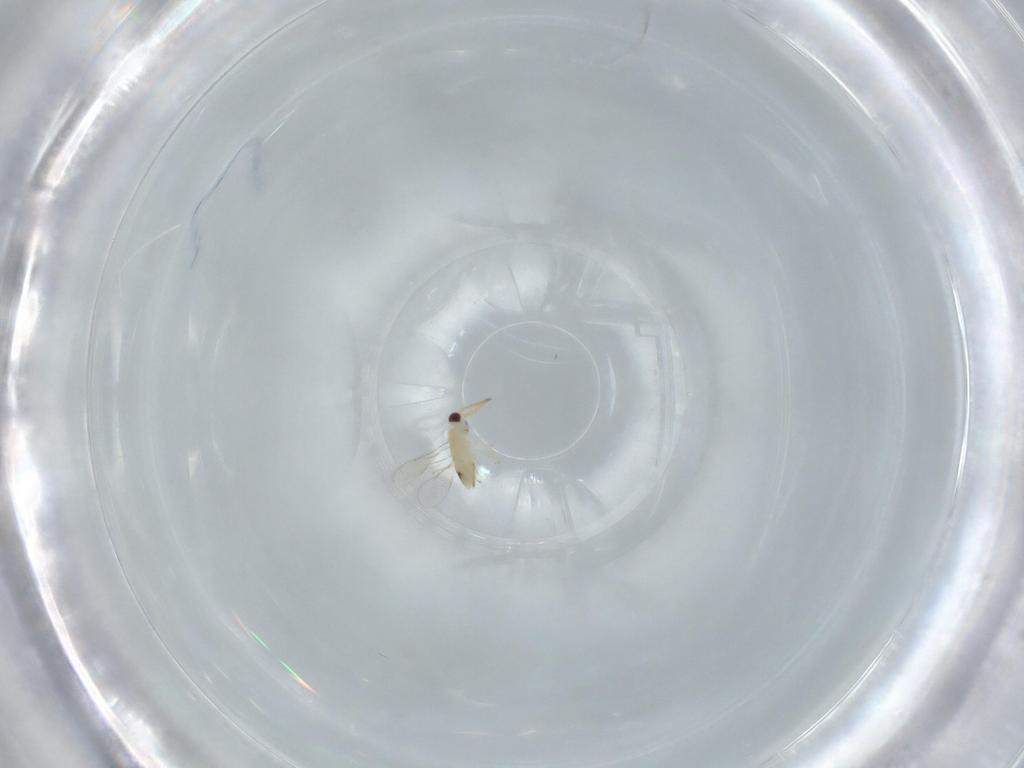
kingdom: Animalia
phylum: Arthropoda
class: Insecta
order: Hymenoptera
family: Aphelinidae
